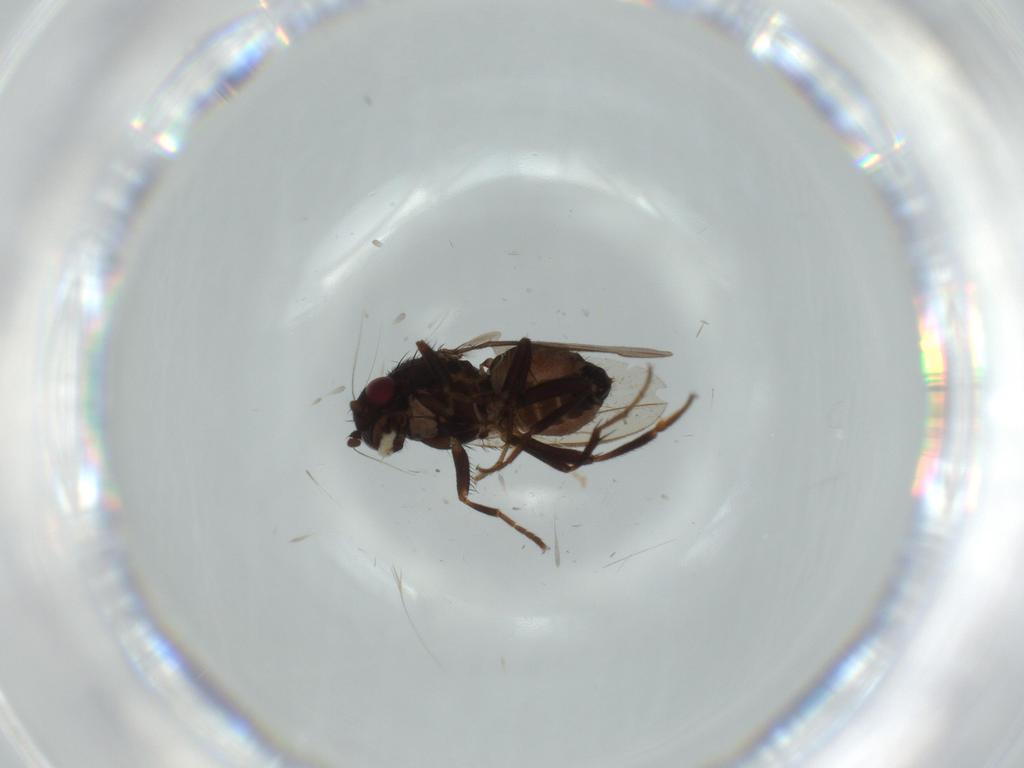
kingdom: Animalia
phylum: Arthropoda
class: Insecta
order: Diptera
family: Sphaeroceridae
